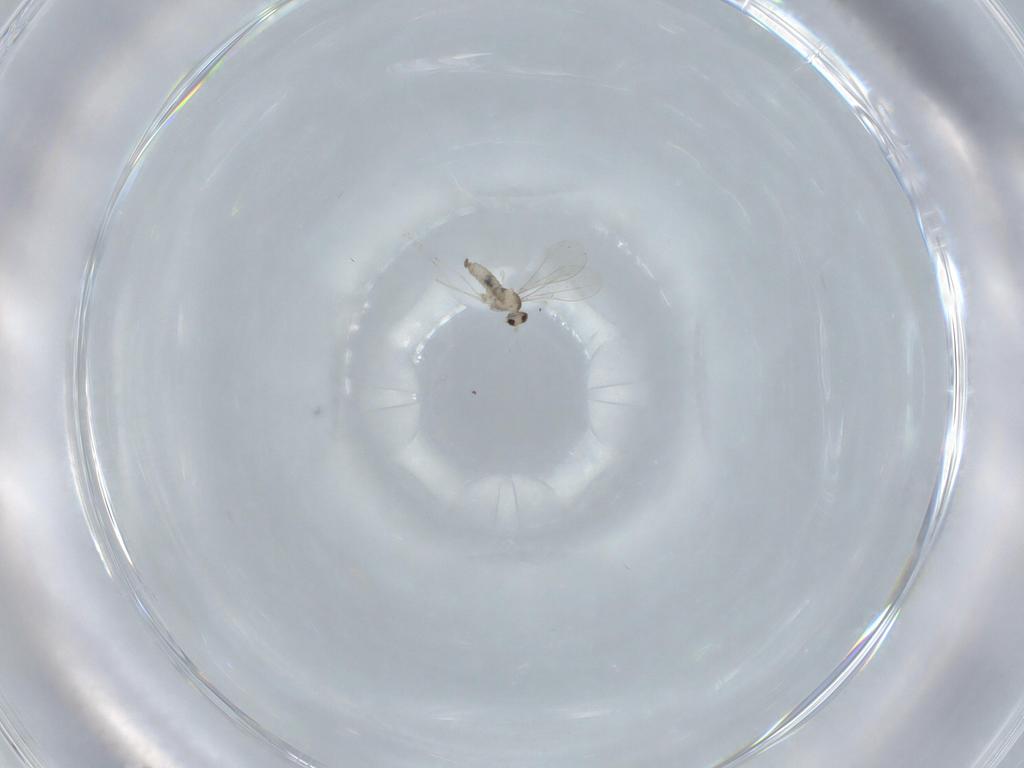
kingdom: Animalia
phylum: Arthropoda
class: Insecta
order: Diptera
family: Cecidomyiidae
